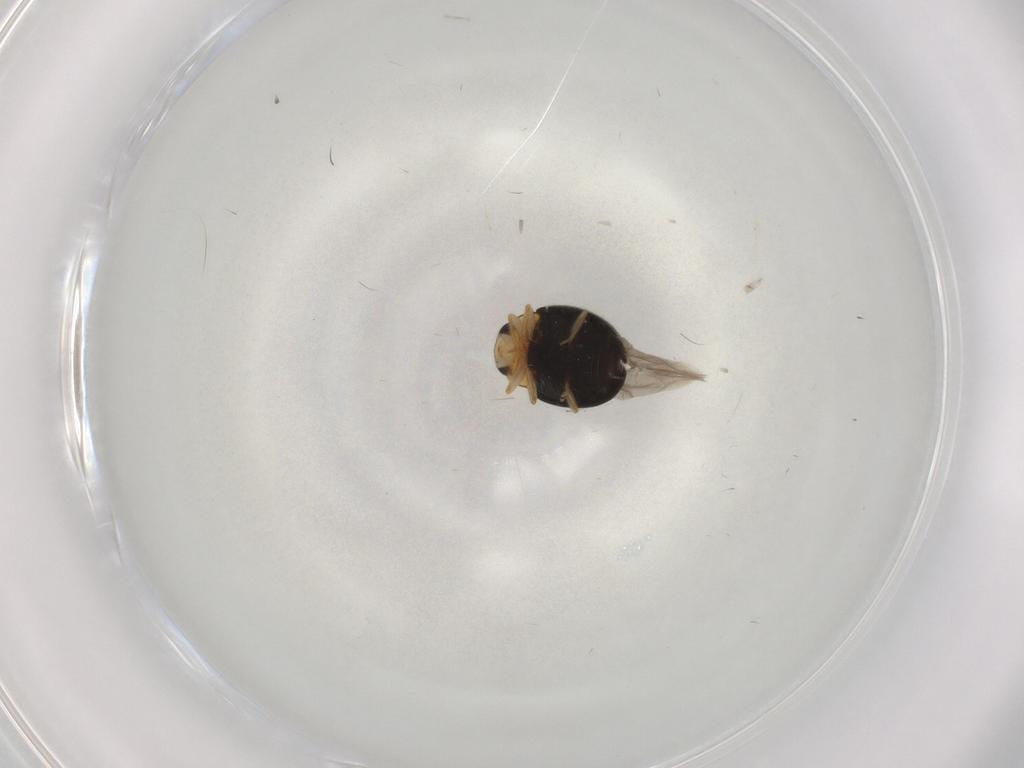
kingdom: Animalia
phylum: Arthropoda
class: Insecta
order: Coleoptera
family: Coccinellidae
